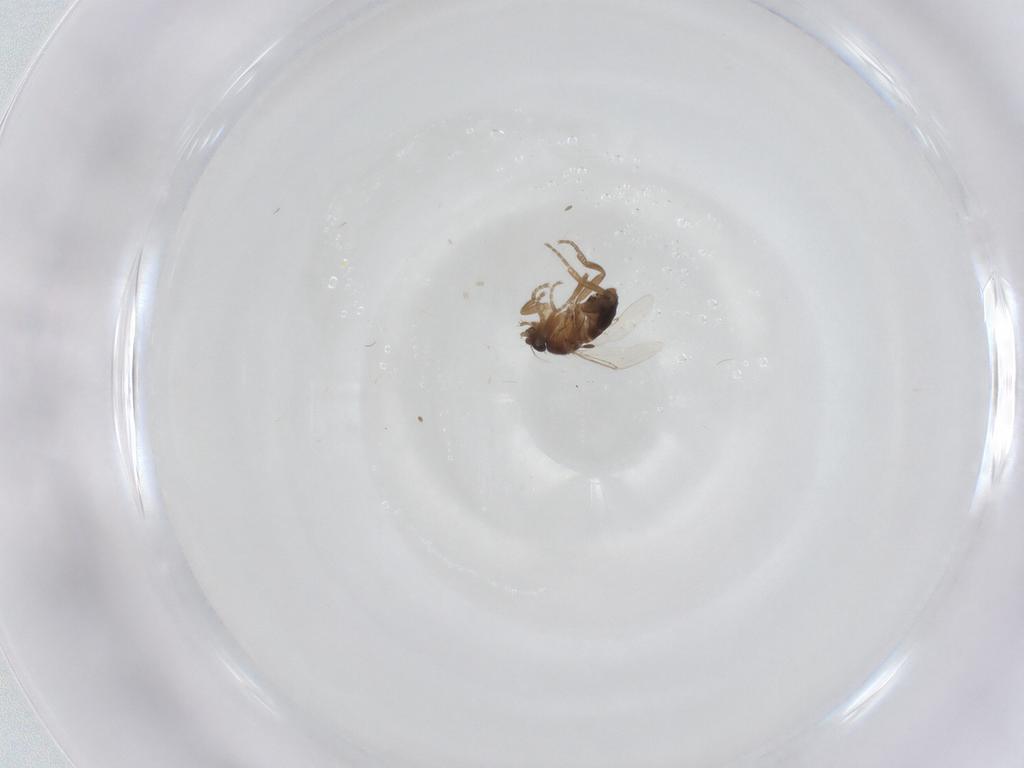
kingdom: Animalia
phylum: Arthropoda
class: Insecta
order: Diptera
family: Phoridae
